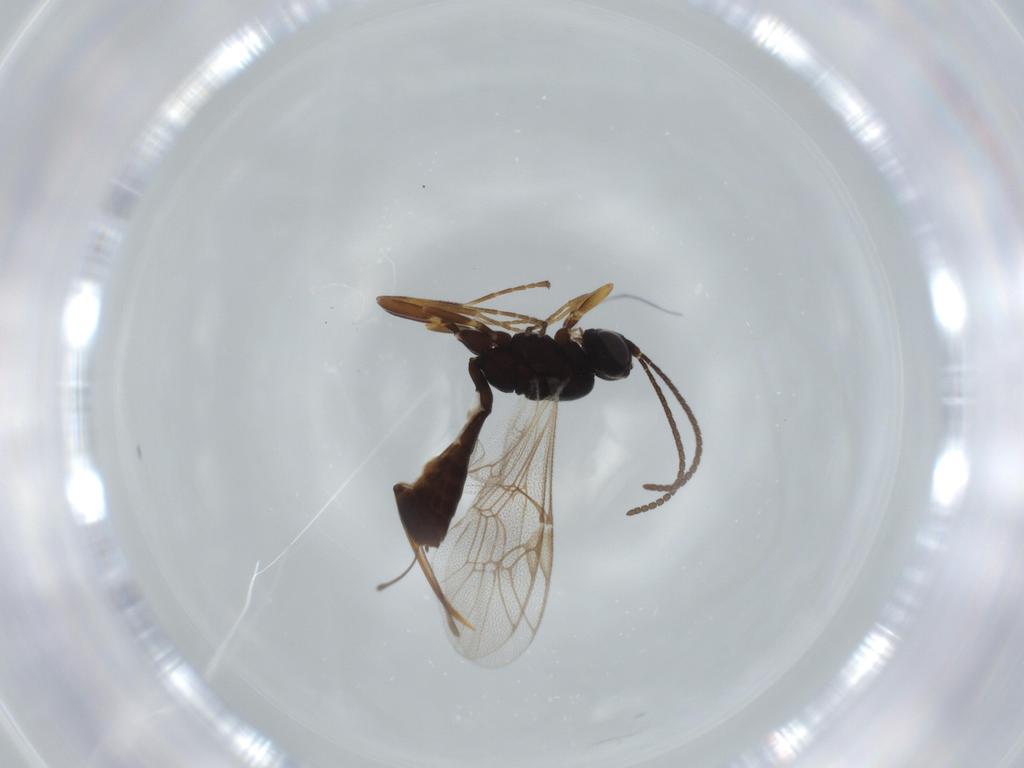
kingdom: Animalia
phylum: Arthropoda
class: Insecta
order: Hymenoptera
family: Ichneumonidae
